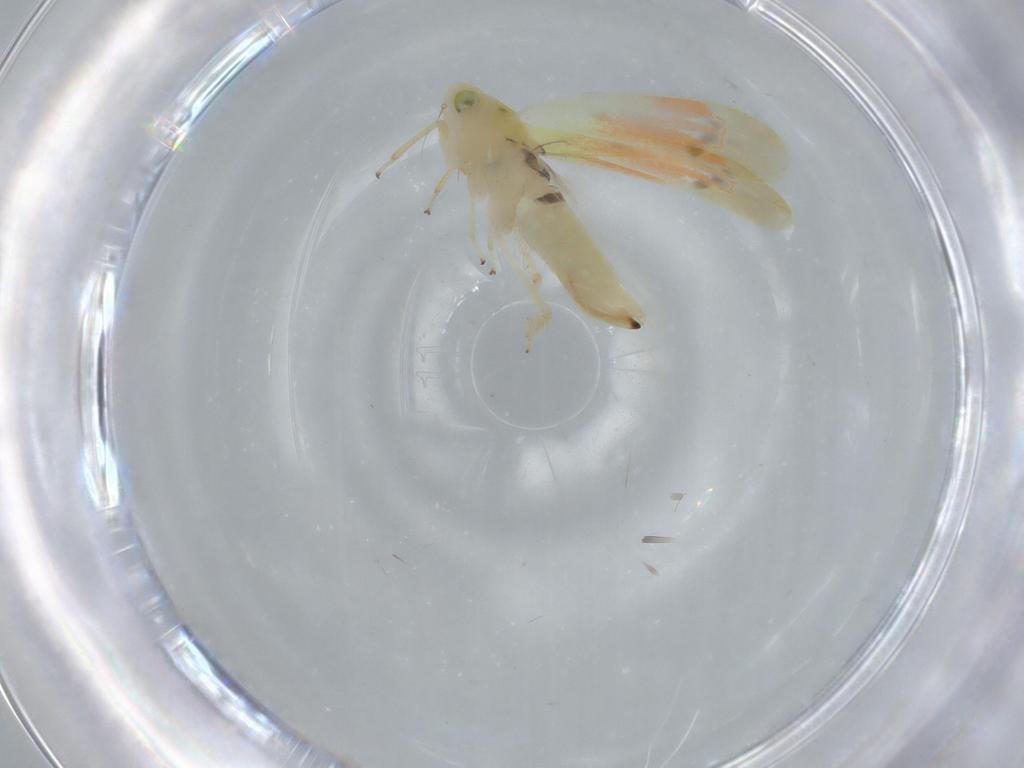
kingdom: Animalia
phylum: Arthropoda
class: Insecta
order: Hemiptera
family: Cicadellidae
